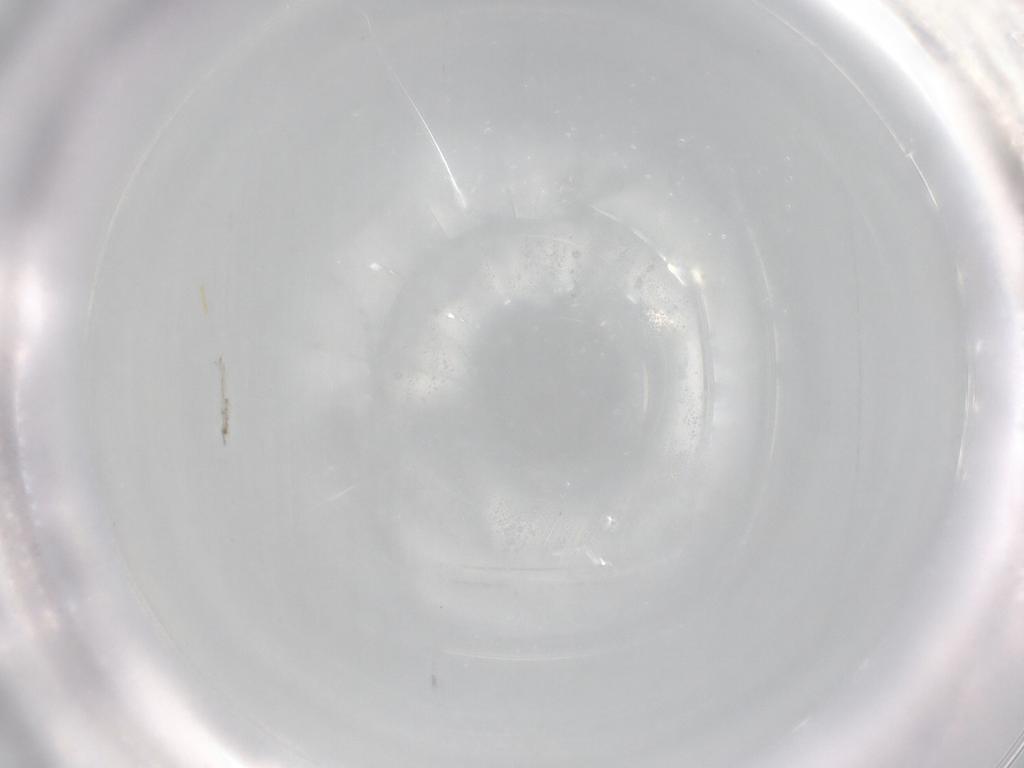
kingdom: Animalia
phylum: Arthropoda
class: Insecta
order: Diptera
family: Agromyzidae
